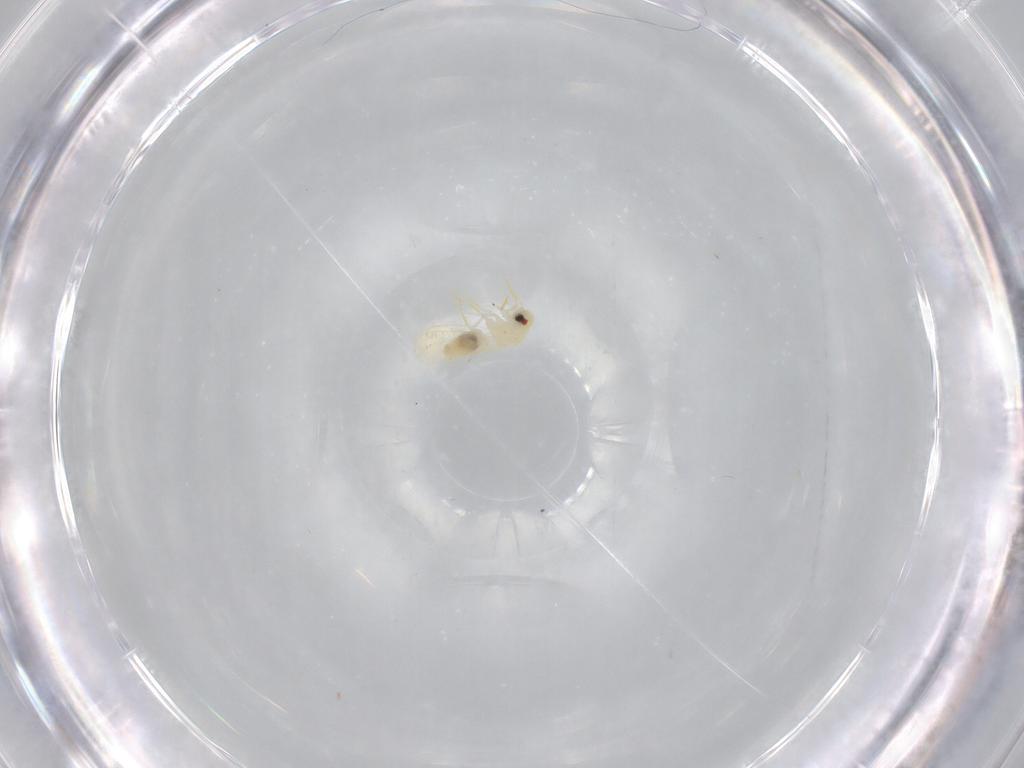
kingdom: Animalia
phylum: Arthropoda
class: Insecta
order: Hemiptera
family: Aleyrodidae
